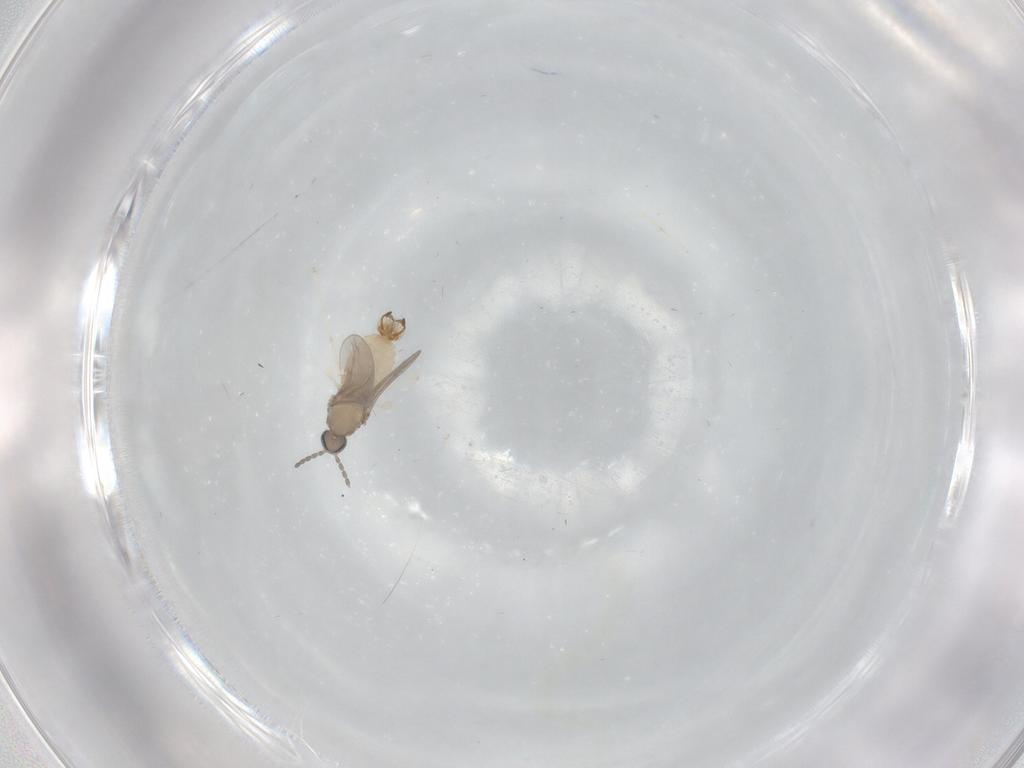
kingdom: Animalia
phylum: Arthropoda
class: Insecta
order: Diptera
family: Cecidomyiidae
